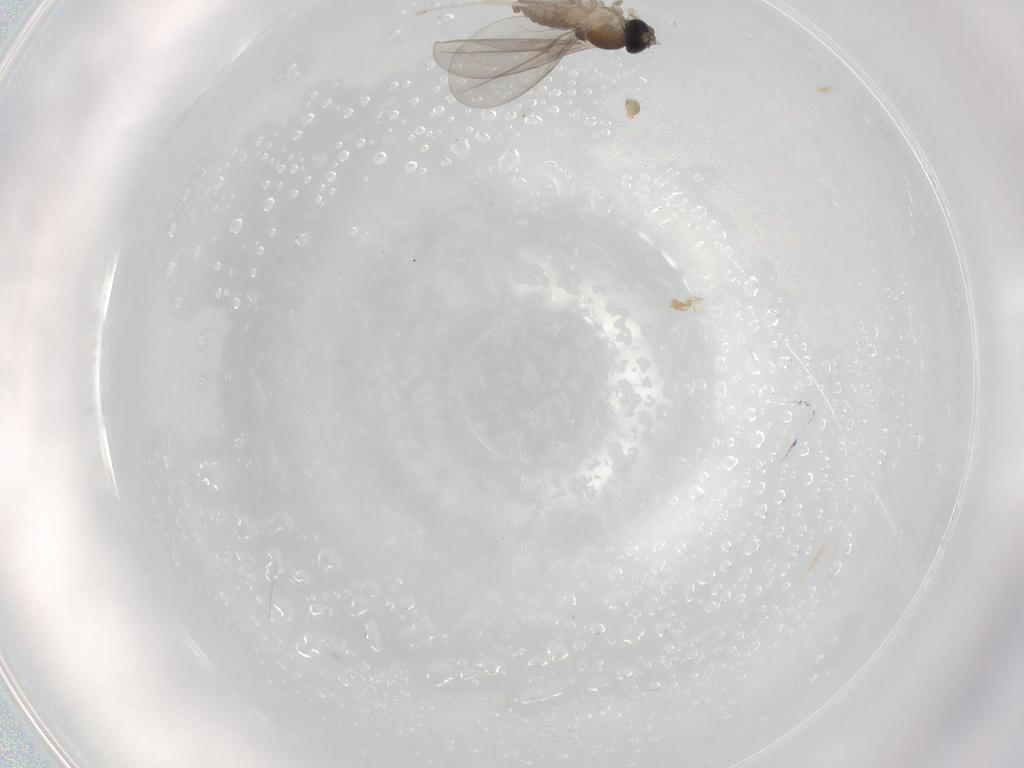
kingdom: Animalia
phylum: Arthropoda
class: Insecta
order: Diptera
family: Cecidomyiidae
